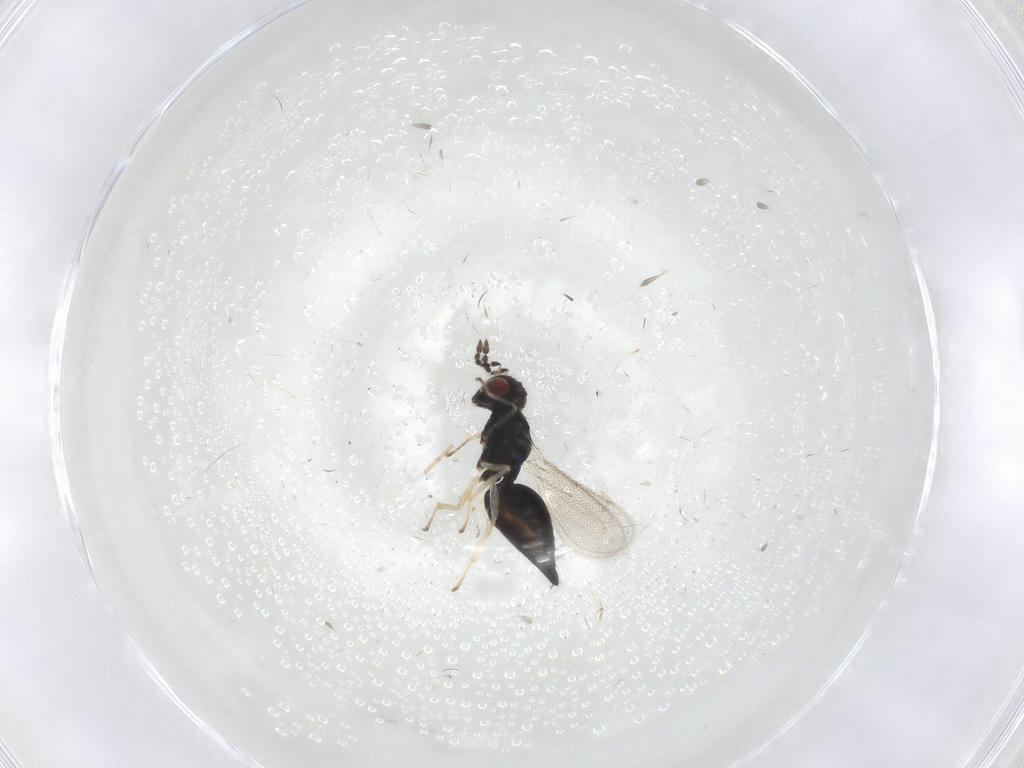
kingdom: Animalia
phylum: Arthropoda
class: Insecta
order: Hymenoptera
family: Eulophidae
